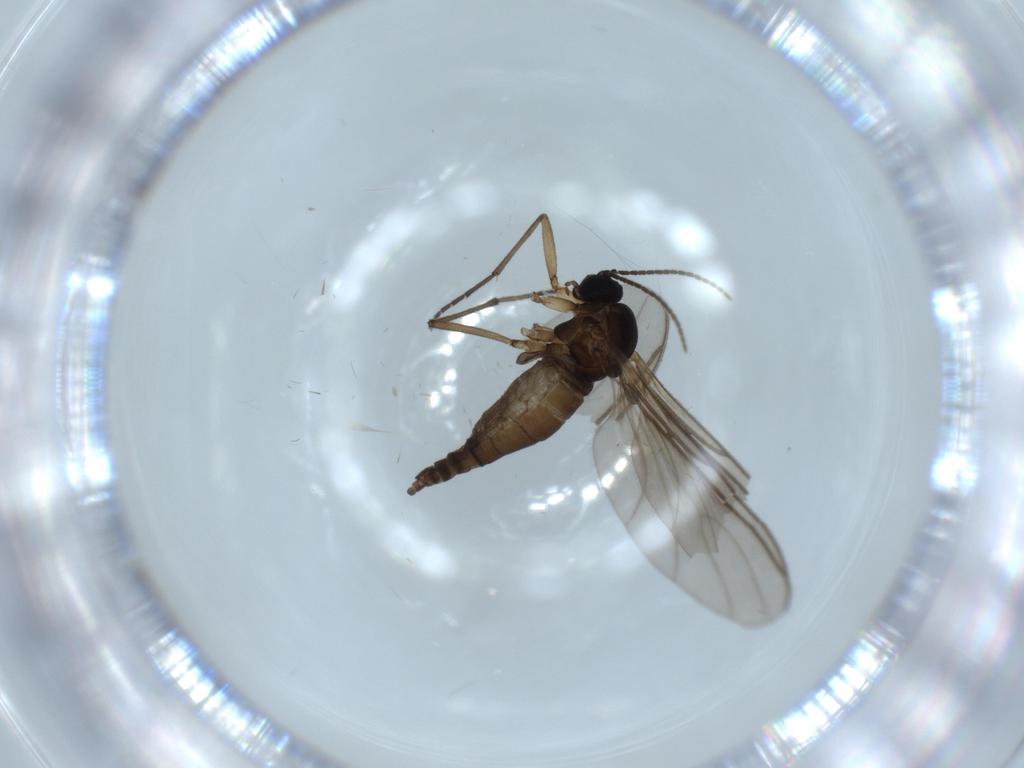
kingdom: Animalia
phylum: Arthropoda
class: Insecta
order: Diptera
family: Sciaridae
